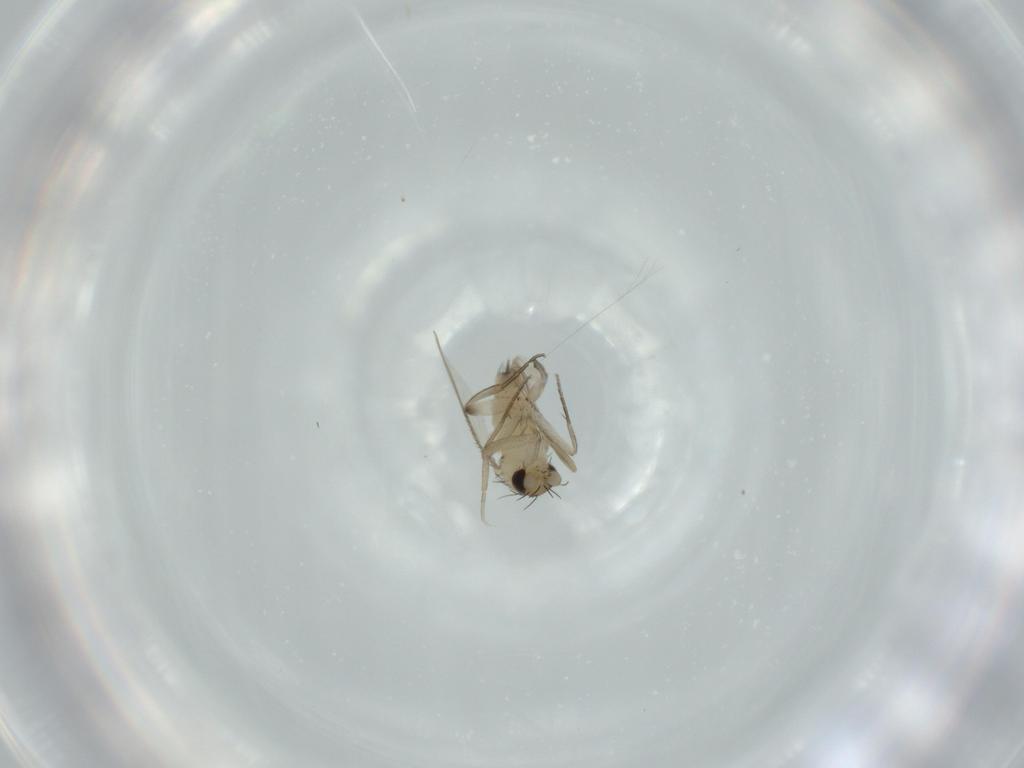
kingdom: Animalia
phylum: Arthropoda
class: Insecta
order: Diptera
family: Phoridae
